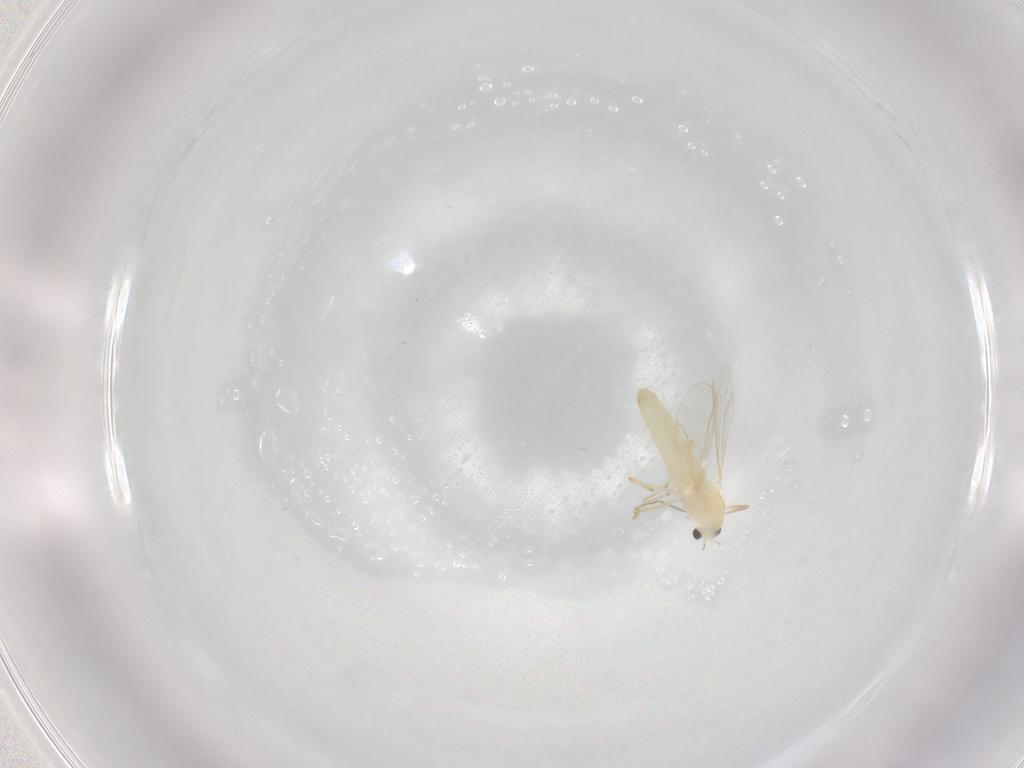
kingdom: Animalia
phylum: Arthropoda
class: Insecta
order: Diptera
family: Chironomidae
